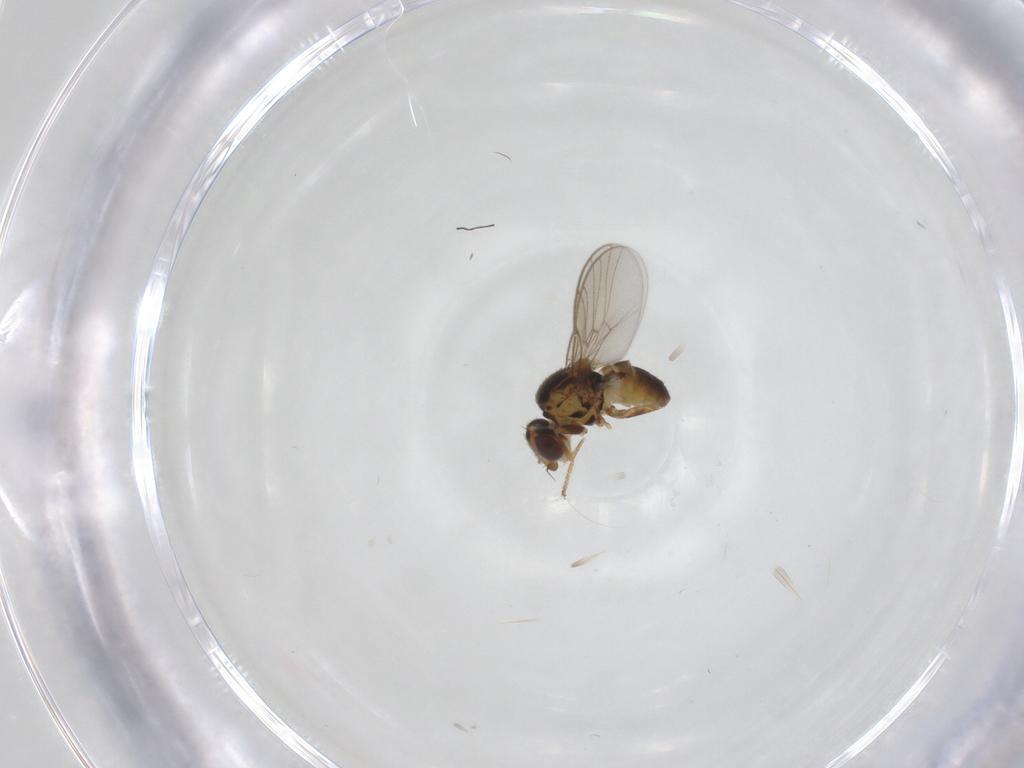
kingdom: Animalia
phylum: Arthropoda
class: Insecta
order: Diptera
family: Chloropidae
